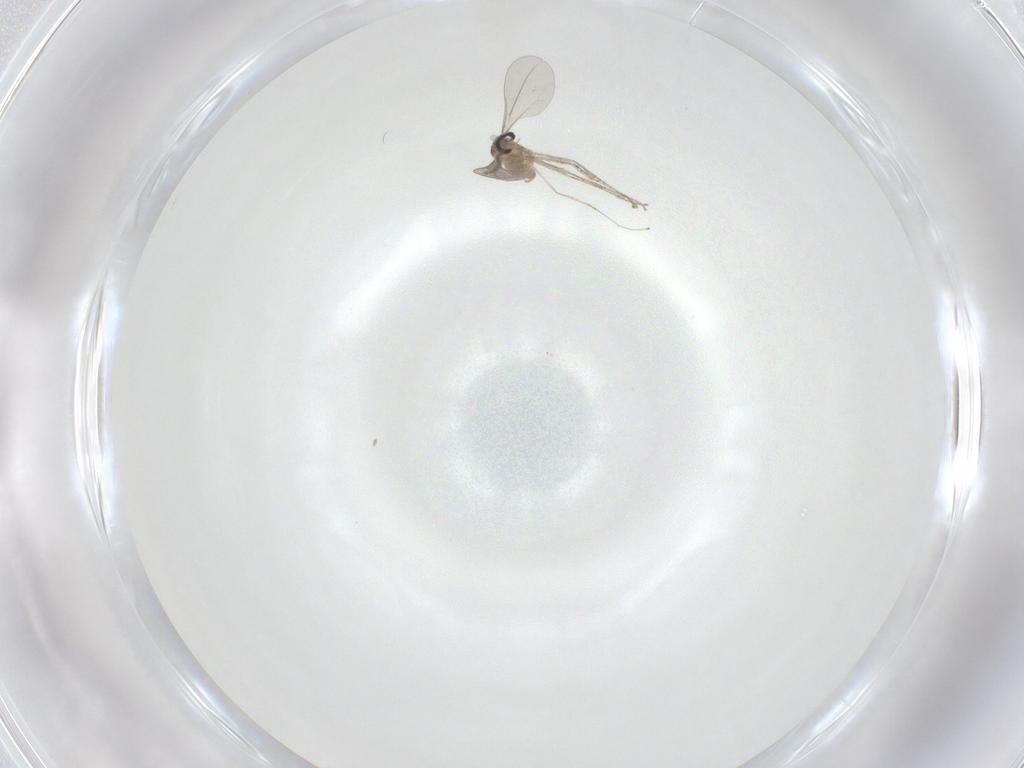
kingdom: Animalia
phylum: Arthropoda
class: Insecta
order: Diptera
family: Cecidomyiidae
